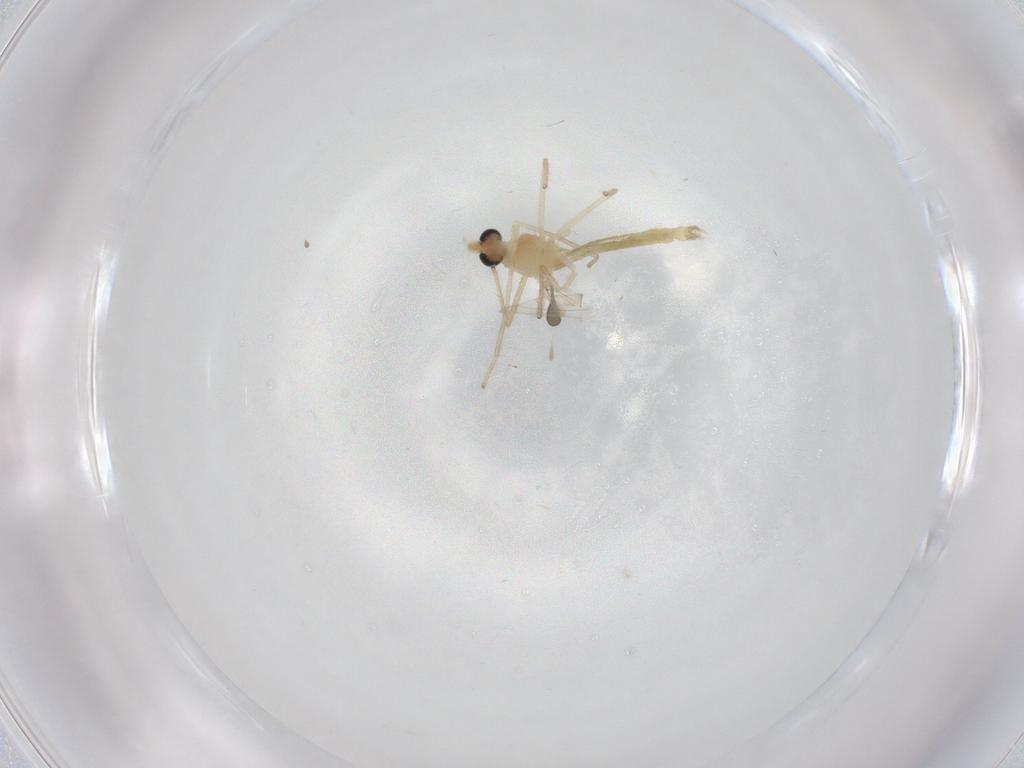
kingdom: Animalia
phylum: Arthropoda
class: Insecta
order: Diptera
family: Chironomidae
